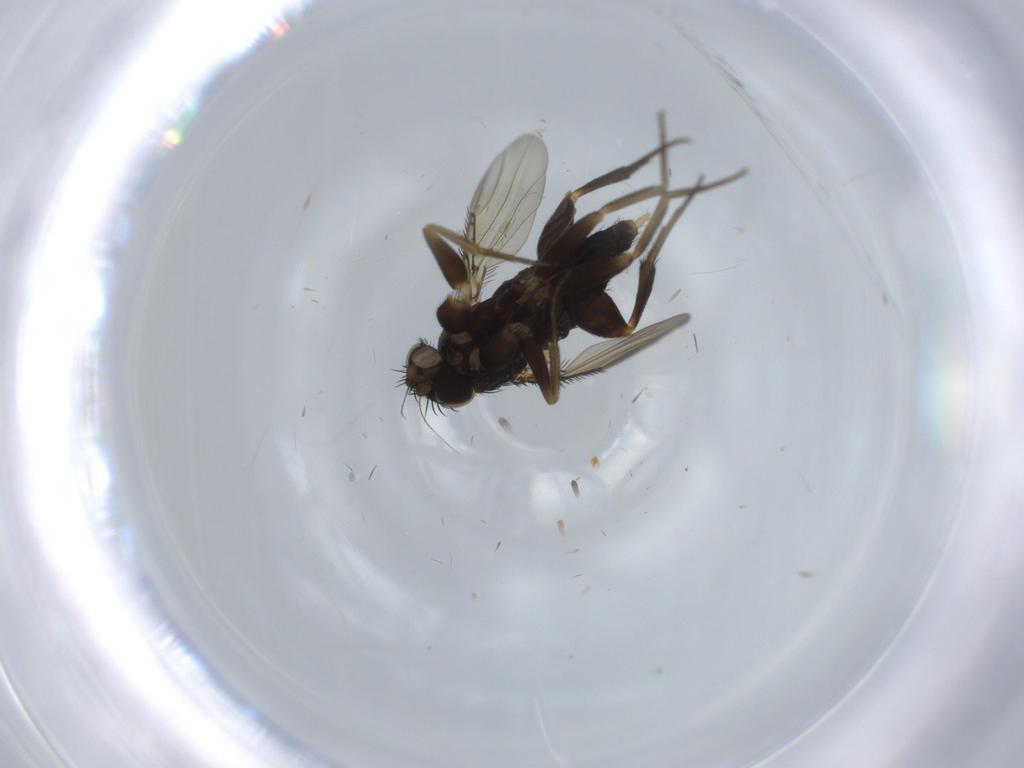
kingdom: Animalia
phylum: Arthropoda
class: Insecta
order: Diptera
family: Phoridae
